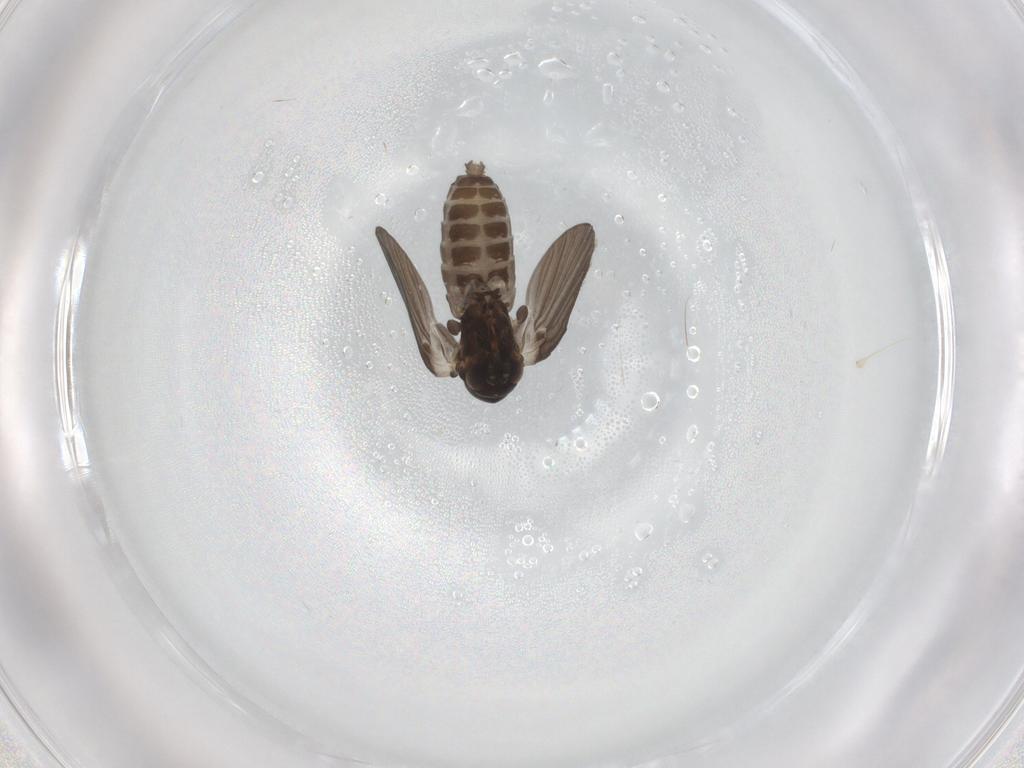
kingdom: Animalia
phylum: Arthropoda
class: Insecta
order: Diptera
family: Psychodidae
